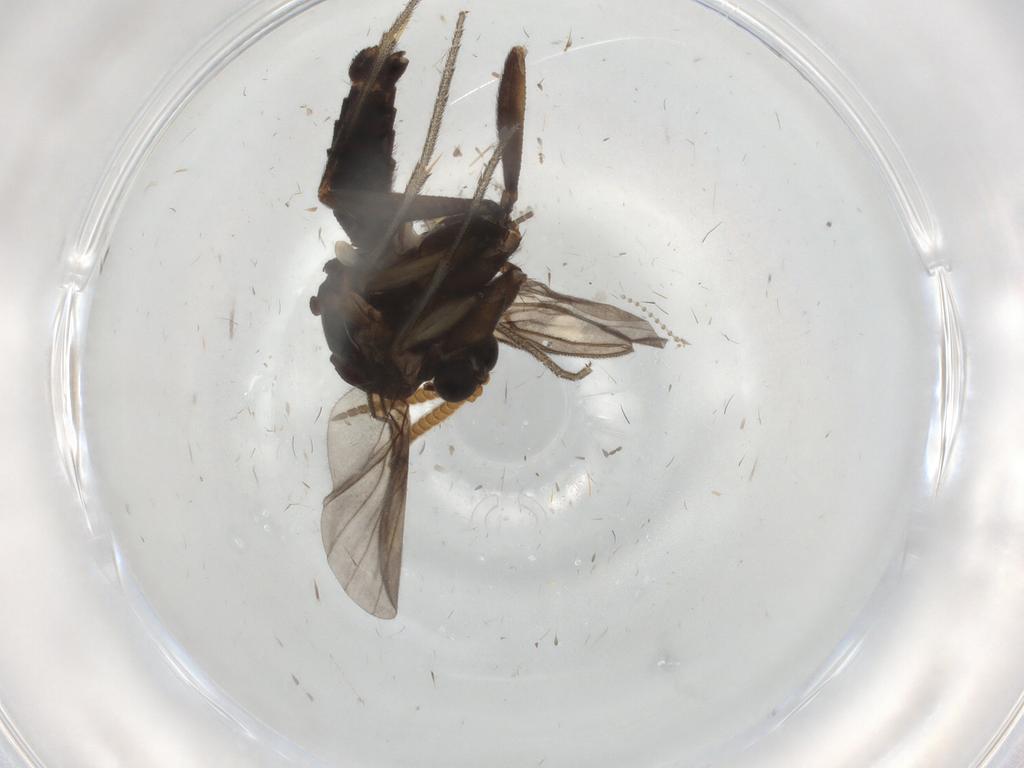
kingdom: Animalia
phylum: Arthropoda
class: Insecta
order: Diptera
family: Mycetophilidae
